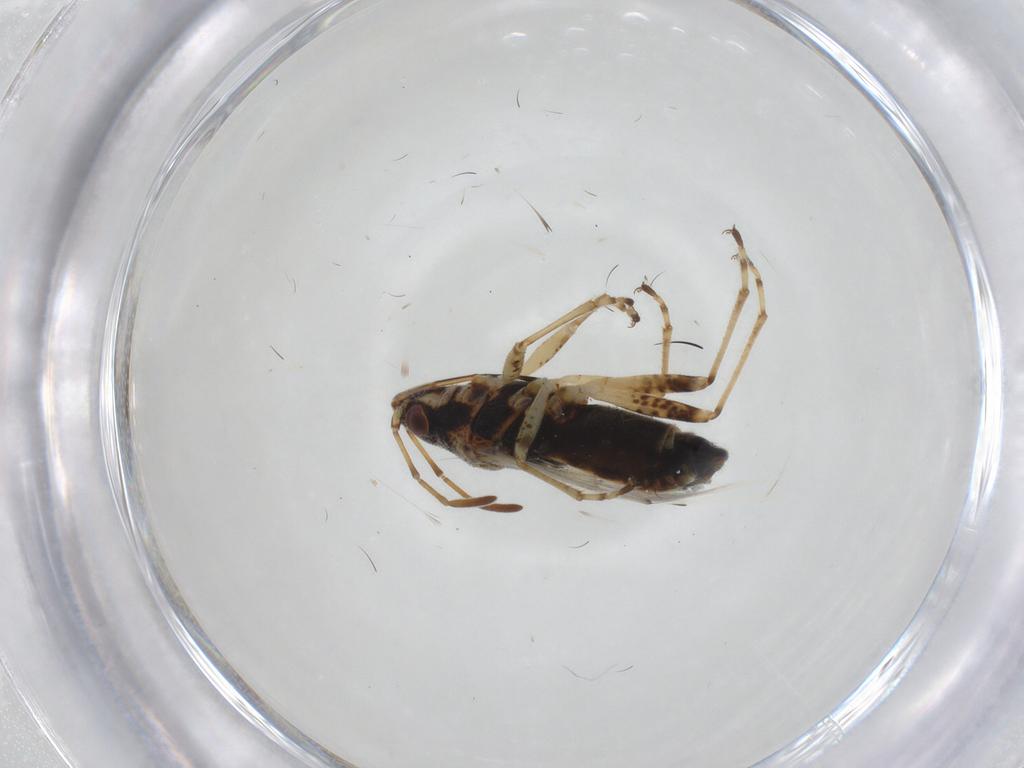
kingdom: Animalia
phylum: Arthropoda
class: Insecta
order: Hemiptera
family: Lygaeidae
